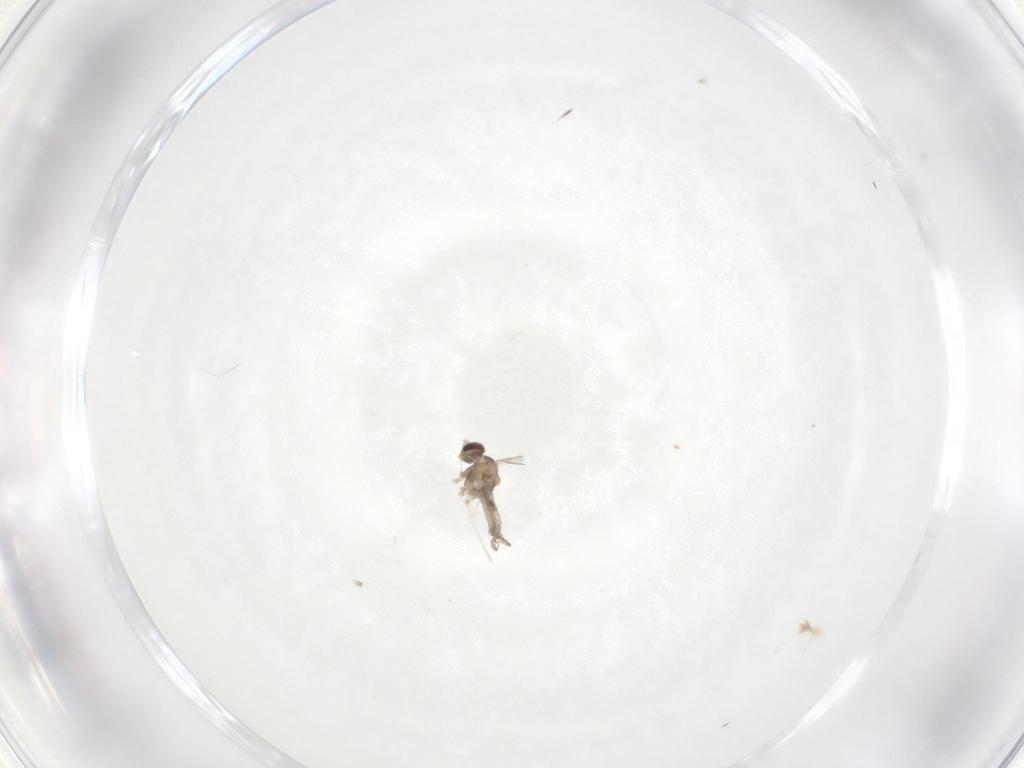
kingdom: Animalia
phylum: Arthropoda
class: Insecta
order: Diptera
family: Cecidomyiidae
